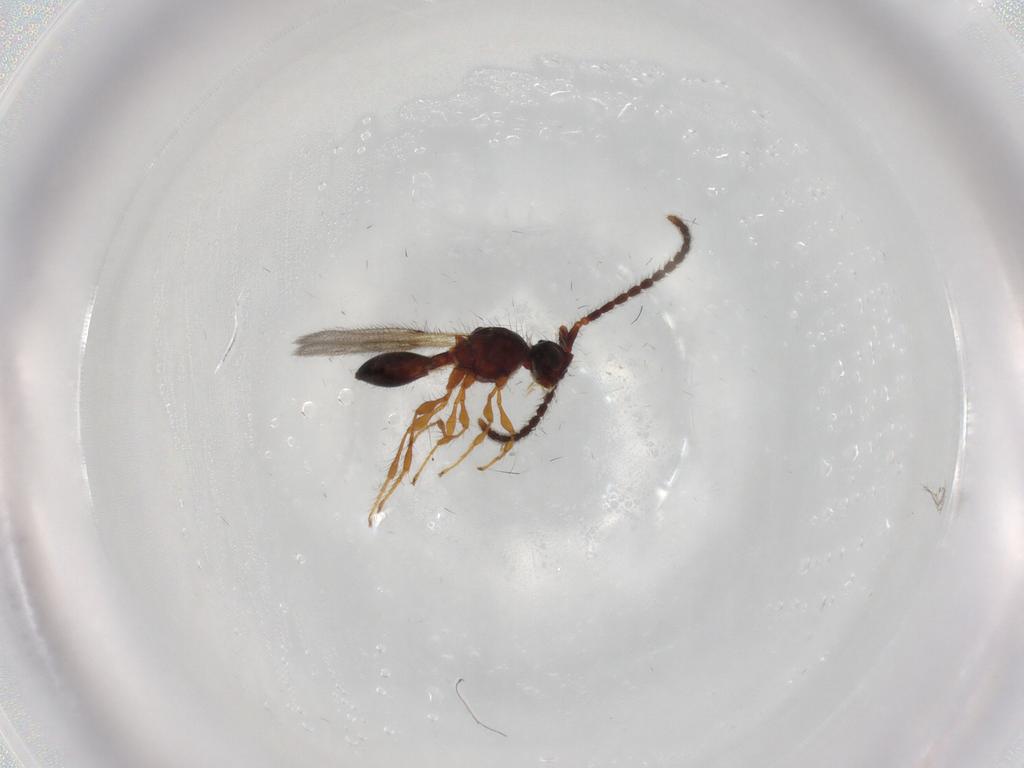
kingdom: Animalia
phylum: Arthropoda
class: Insecta
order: Hymenoptera
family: Diapriidae
